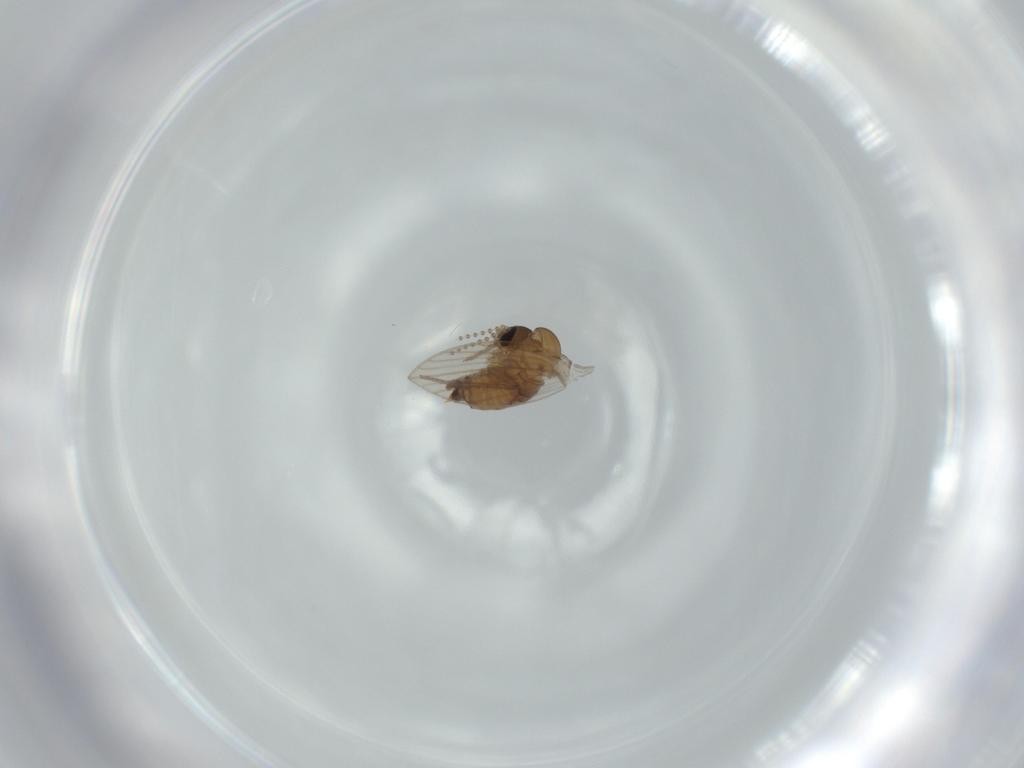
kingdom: Animalia
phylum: Arthropoda
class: Insecta
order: Diptera
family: Psychodidae
